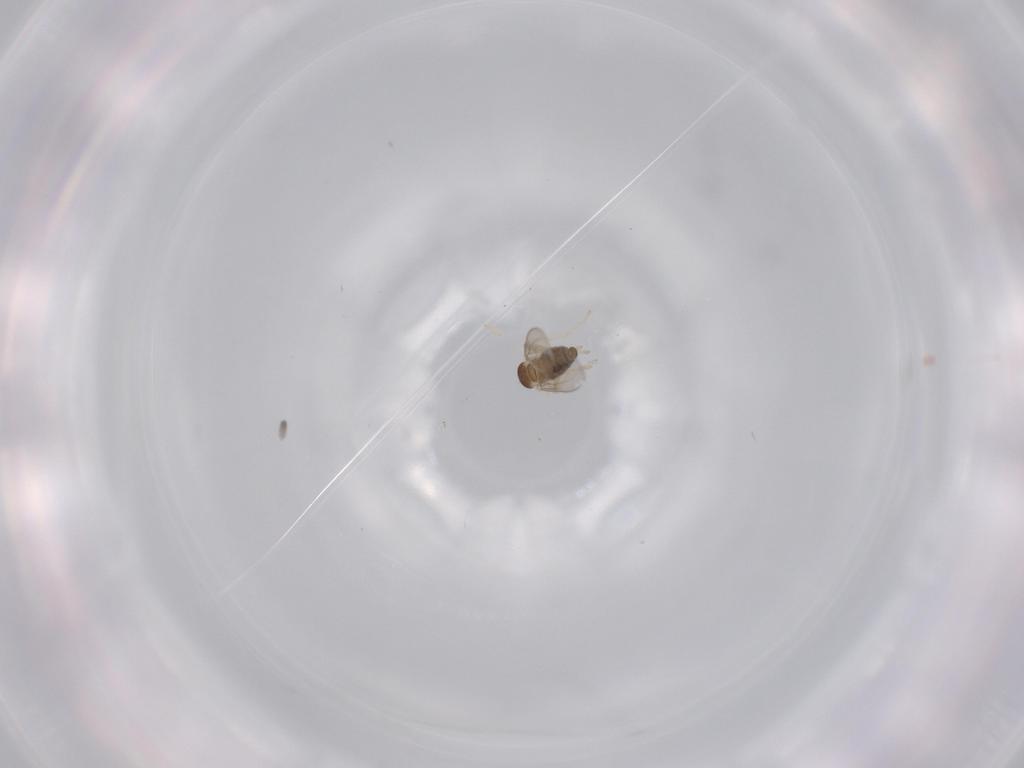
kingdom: Animalia
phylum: Arthropoda
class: Insecta
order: Diptera
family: Cecidomyiidae
